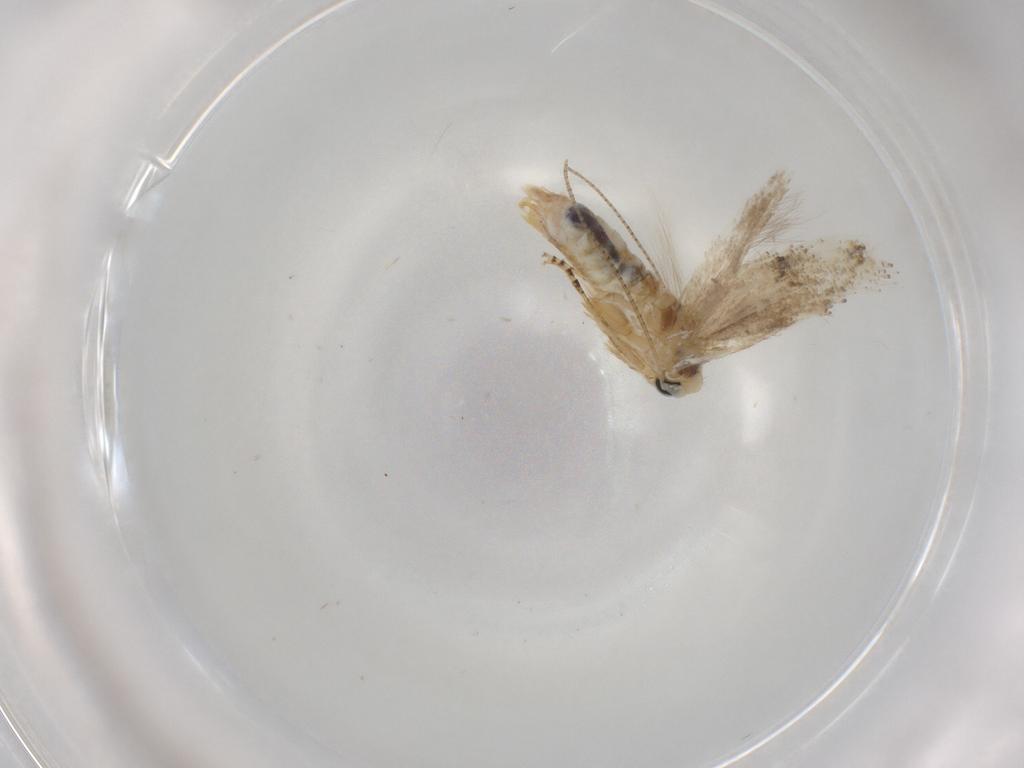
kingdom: Animalia
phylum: Arthropoda
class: Insecta
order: Lepidoptera
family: Bucculatricidae
